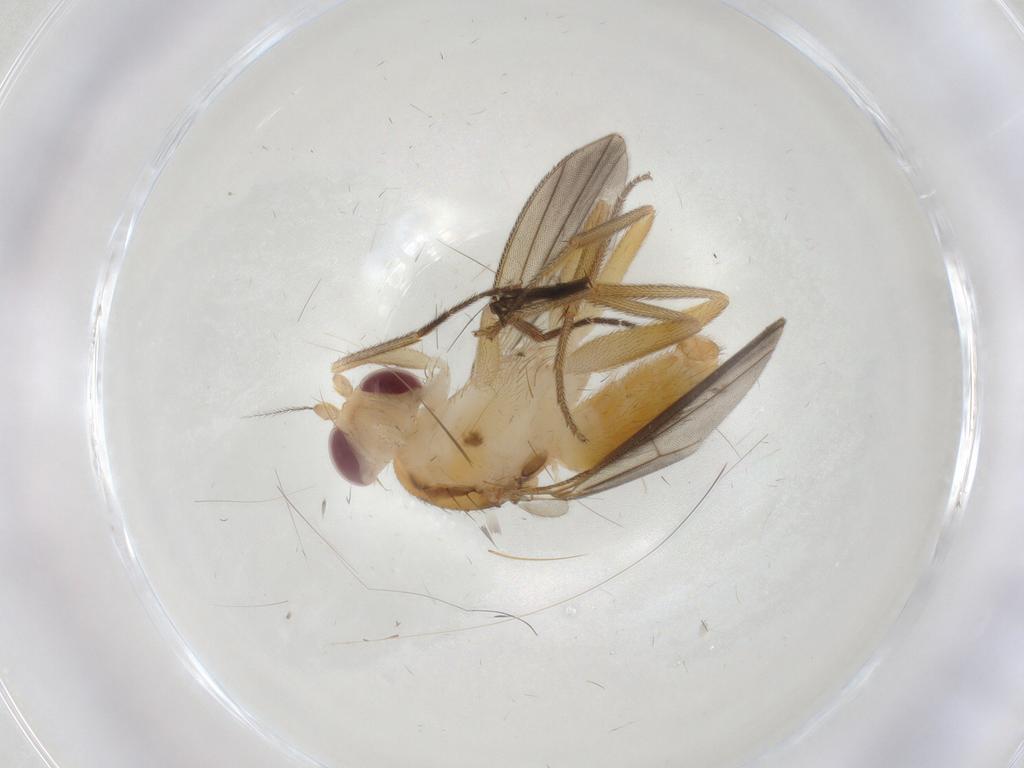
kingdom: Animalia
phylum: Arthropoda
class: Insecta
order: Diptera
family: Clusiidae
